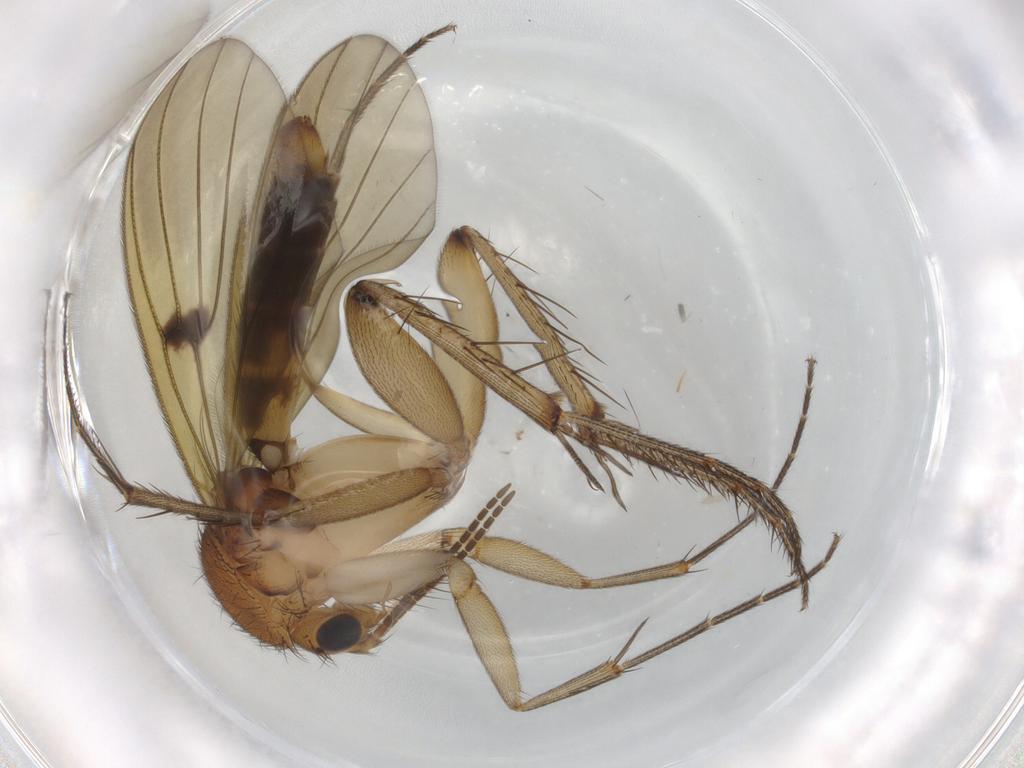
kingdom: Animalia
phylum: Arthropoda
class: Insecta
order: Diptera
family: Mycetophilidae
